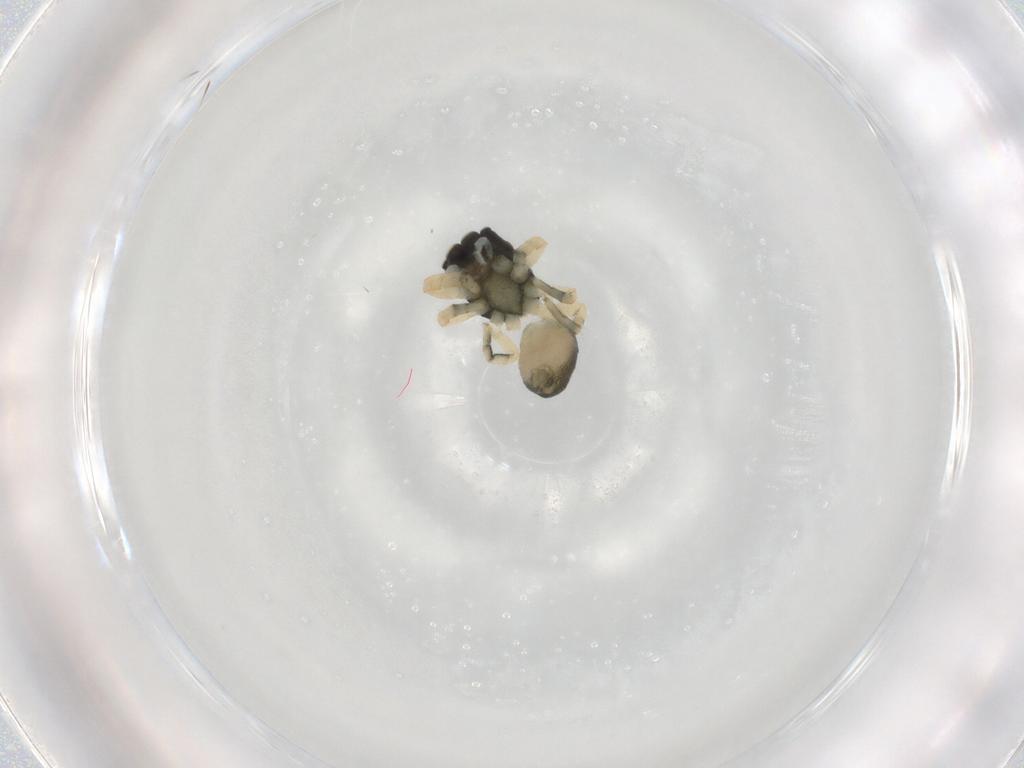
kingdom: Animalia
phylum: Arthropoda
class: Arachnida
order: Araneae
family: Salticidae
